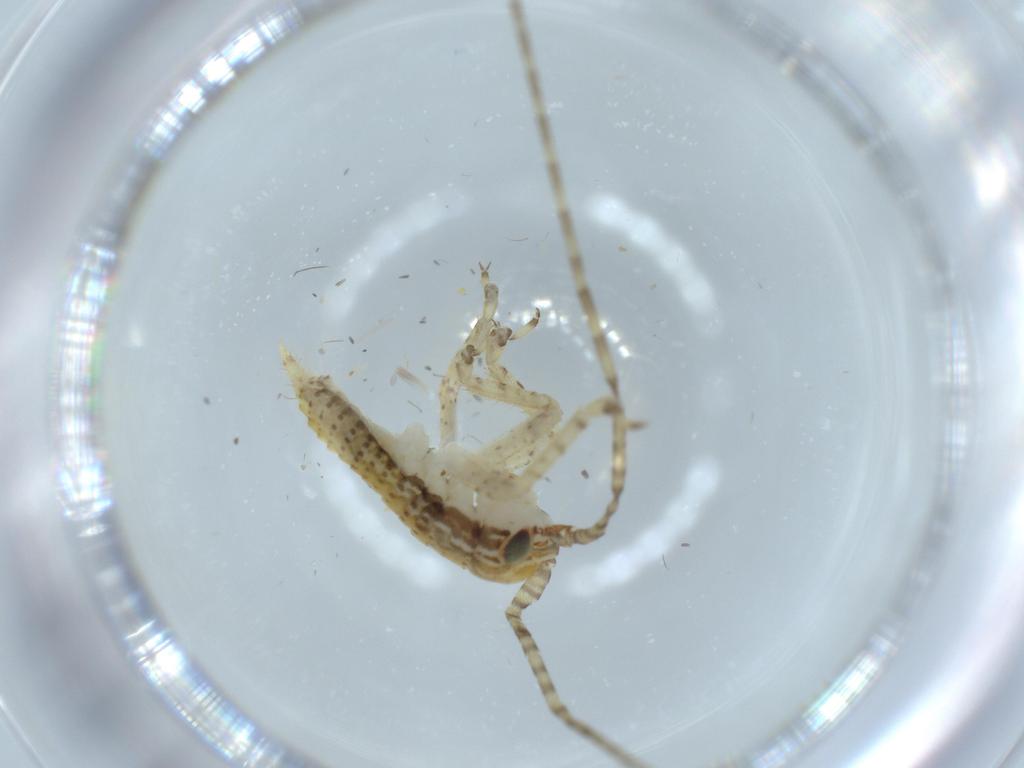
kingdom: Animalia
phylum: Arthropoda
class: Insecta
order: Orthoptera
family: Gryllidae
